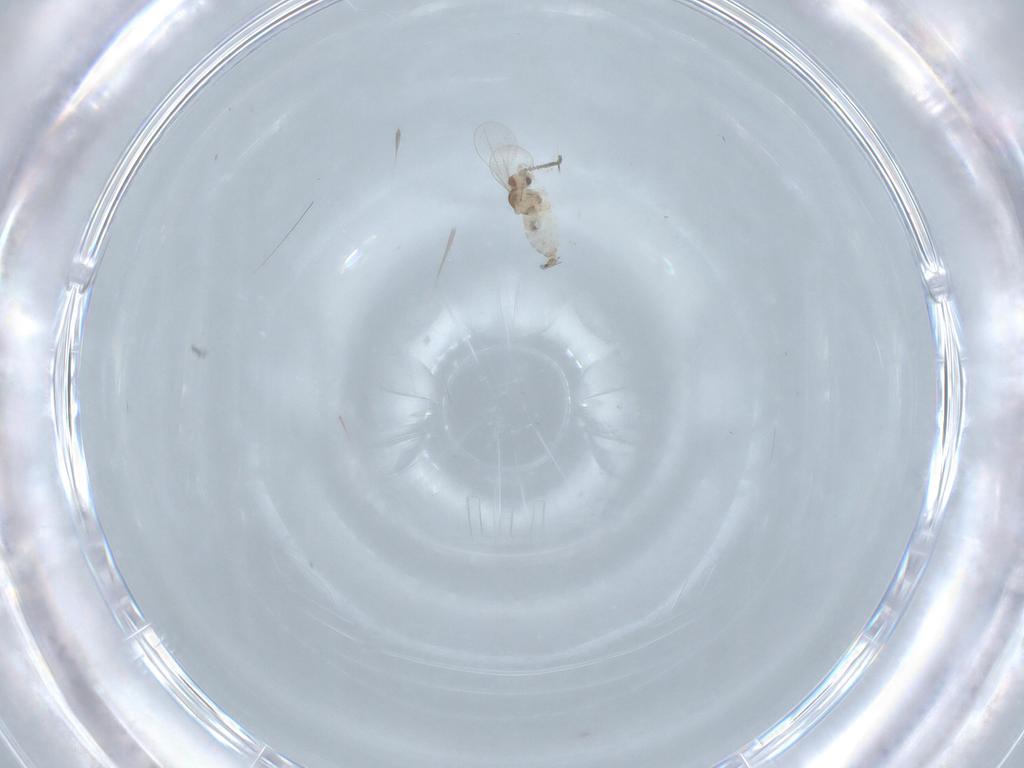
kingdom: Animalia
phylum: Arthropoda
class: Insecta
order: Diptera
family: Cecidomyiidae
